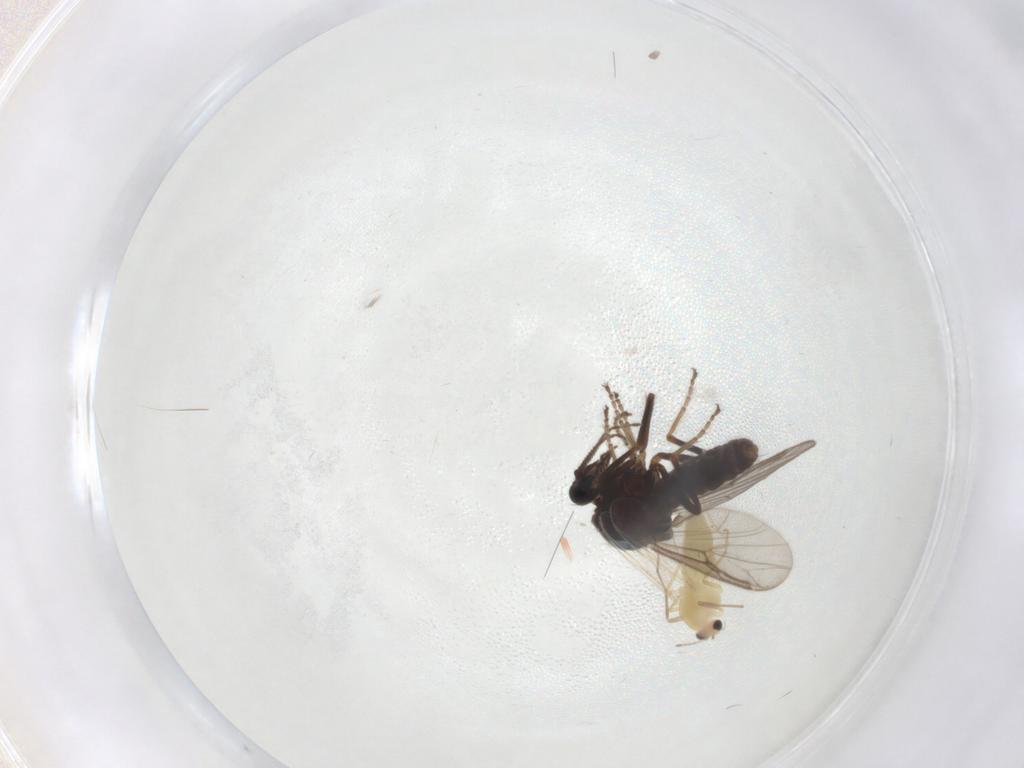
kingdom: Animalia
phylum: Arthropoda
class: Insecta
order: Diptera
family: Chironomidae
